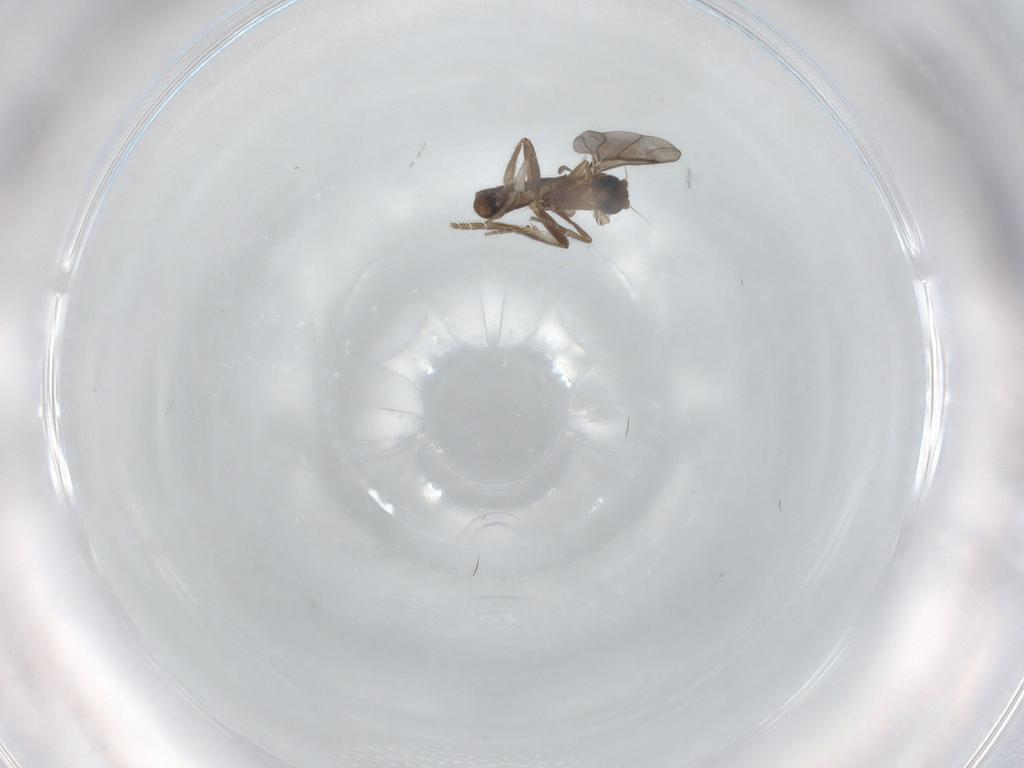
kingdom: Animalia
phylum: Arthropoda
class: Insecta
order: Diptera
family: Phoridae
